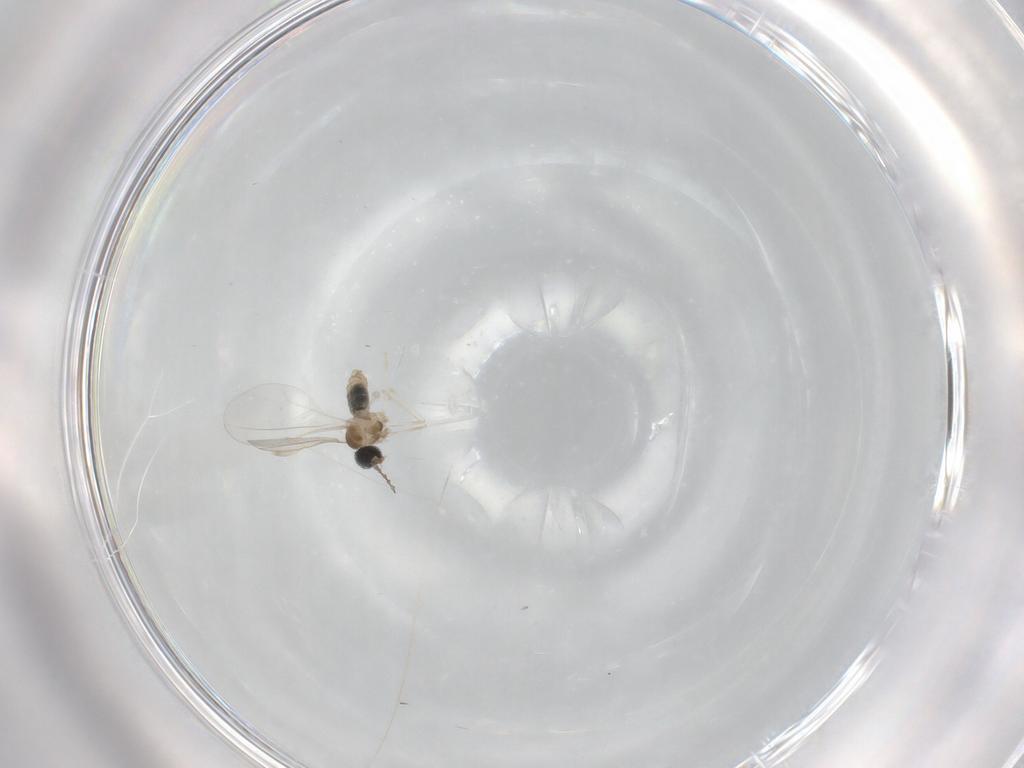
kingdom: Animalia
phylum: Arthropoda
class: Insecta
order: Diptera
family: Cecidomyiidae
